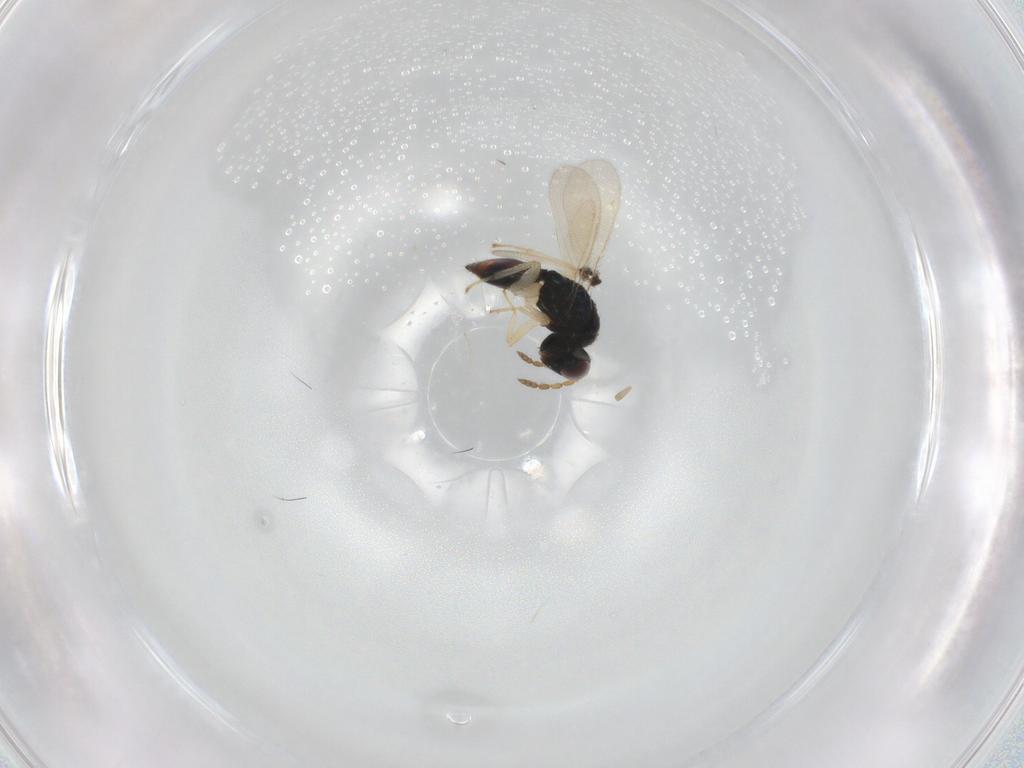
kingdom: Animalia
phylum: Arthropoda
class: Insecta
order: Hymenoptera
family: Eulophidae
